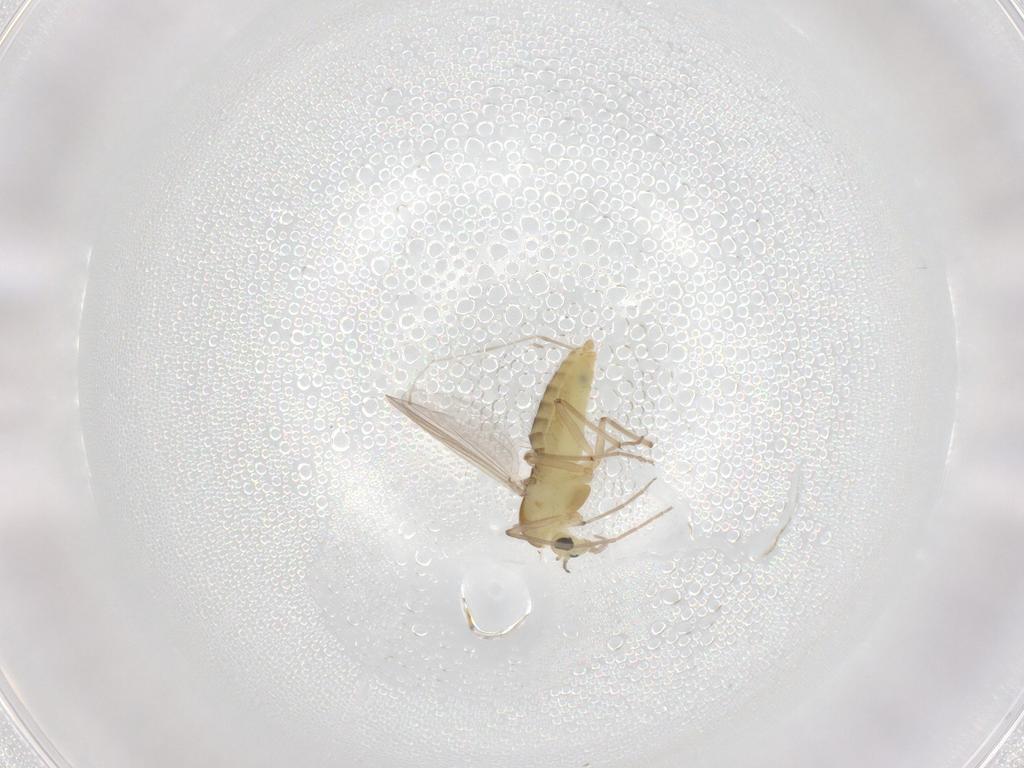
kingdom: Animalia
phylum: Arthropoda
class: Insecta
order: Diptera
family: Chironomidae
